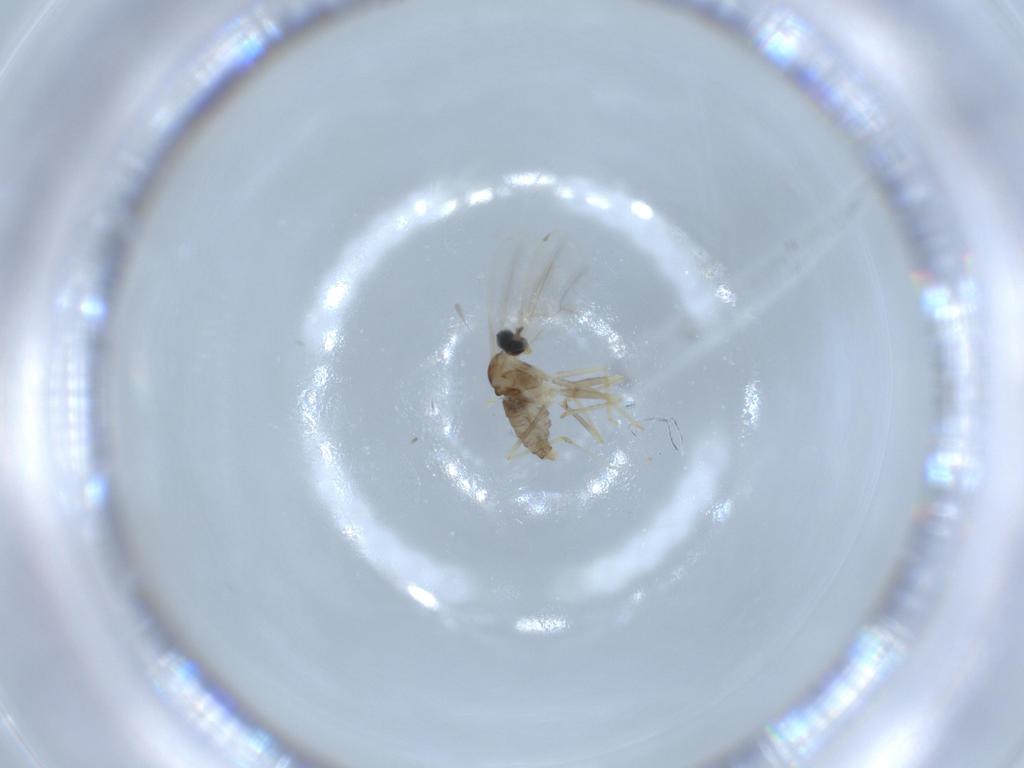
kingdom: Animalia
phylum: Arthropoda
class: Insecta
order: Diptera
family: Cecidomyiidae
